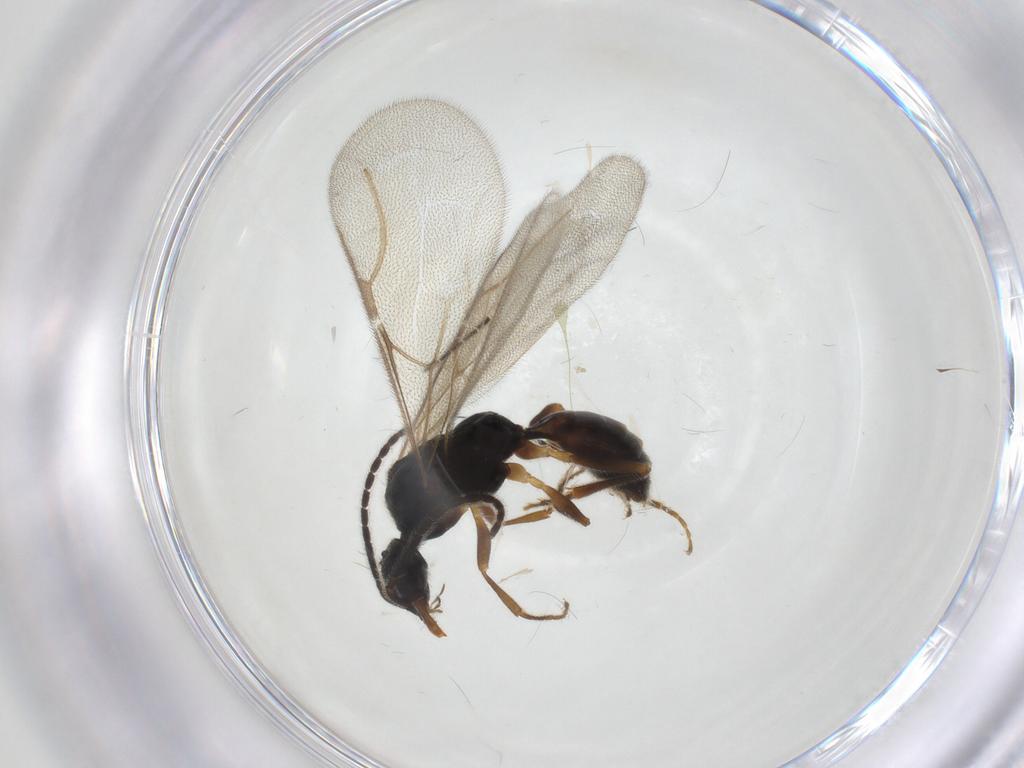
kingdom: Animalia
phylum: Arthropoda
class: Insecta
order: Hymenoptera
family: Bethylidae
